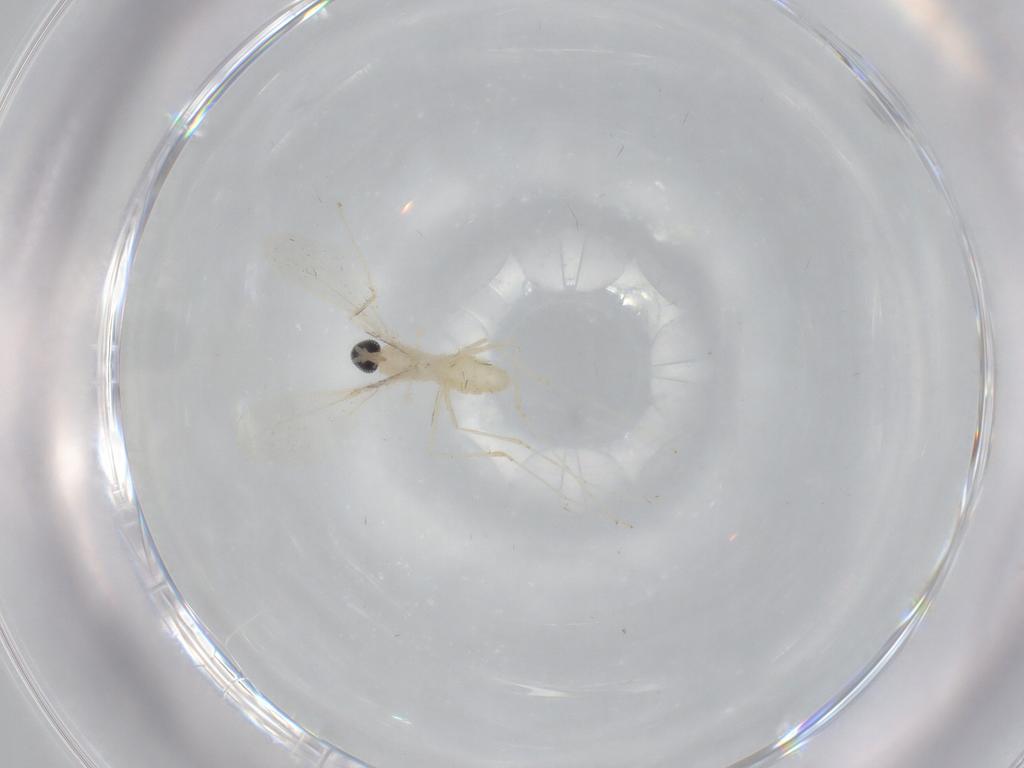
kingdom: Animalia
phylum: Arthropoda
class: Insecta
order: Diptera
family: Cecidomyiidae
